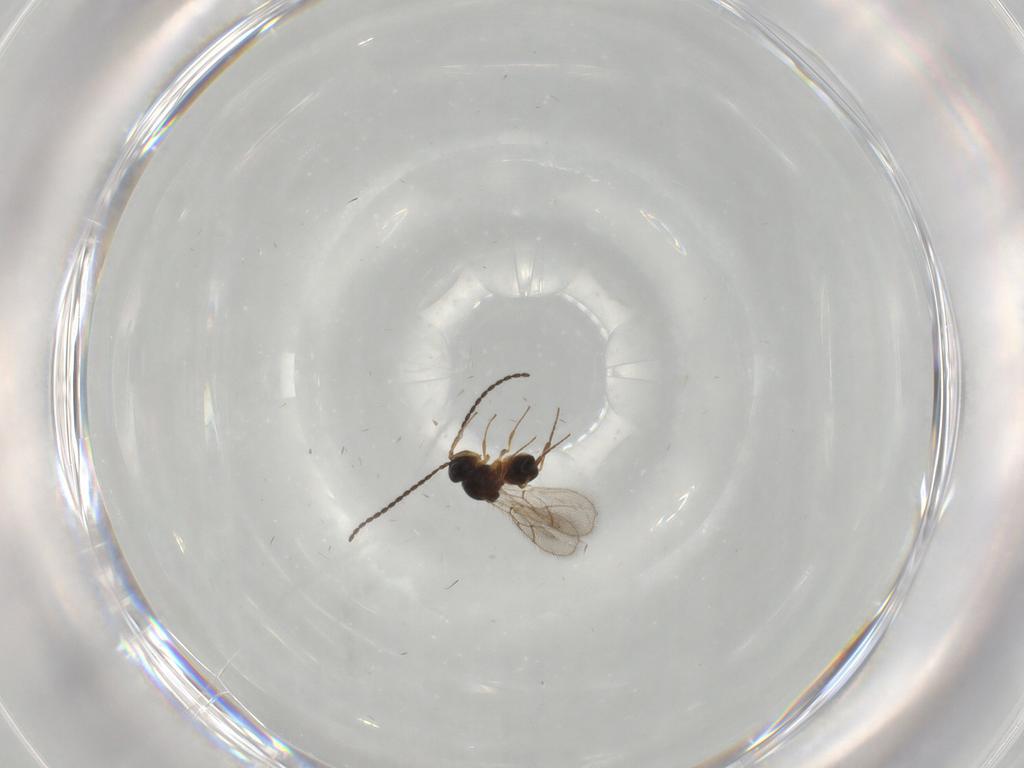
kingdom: Animalia
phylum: Arthropoda
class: Insecta
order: Hymenoptera
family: Figitidae
